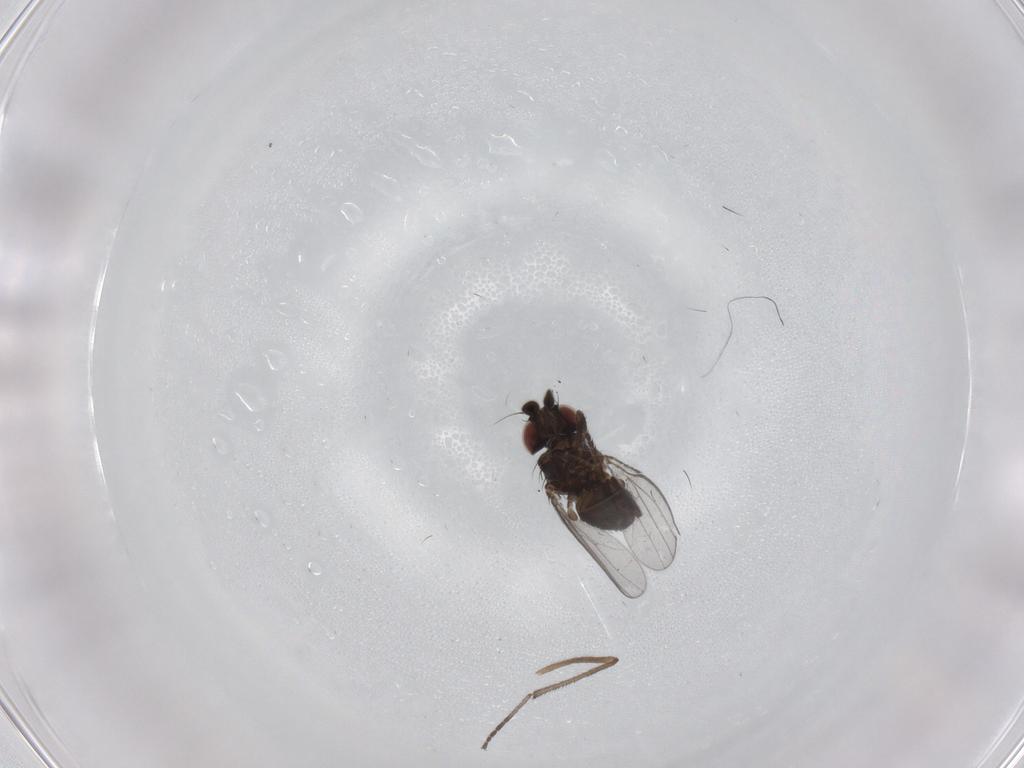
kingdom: Animalia
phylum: Arthropoda
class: Insecta
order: Diptera
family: Milichiidae
